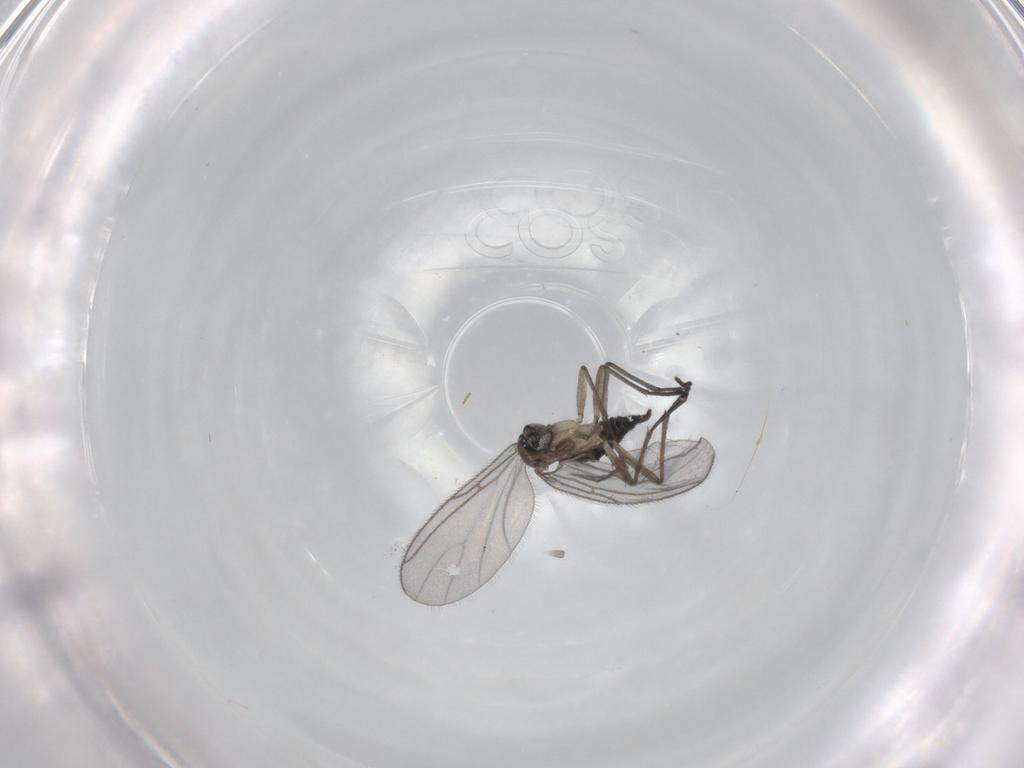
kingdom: Animalia
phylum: Arthropoda
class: Insecta
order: Diptera
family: Sciaridae
